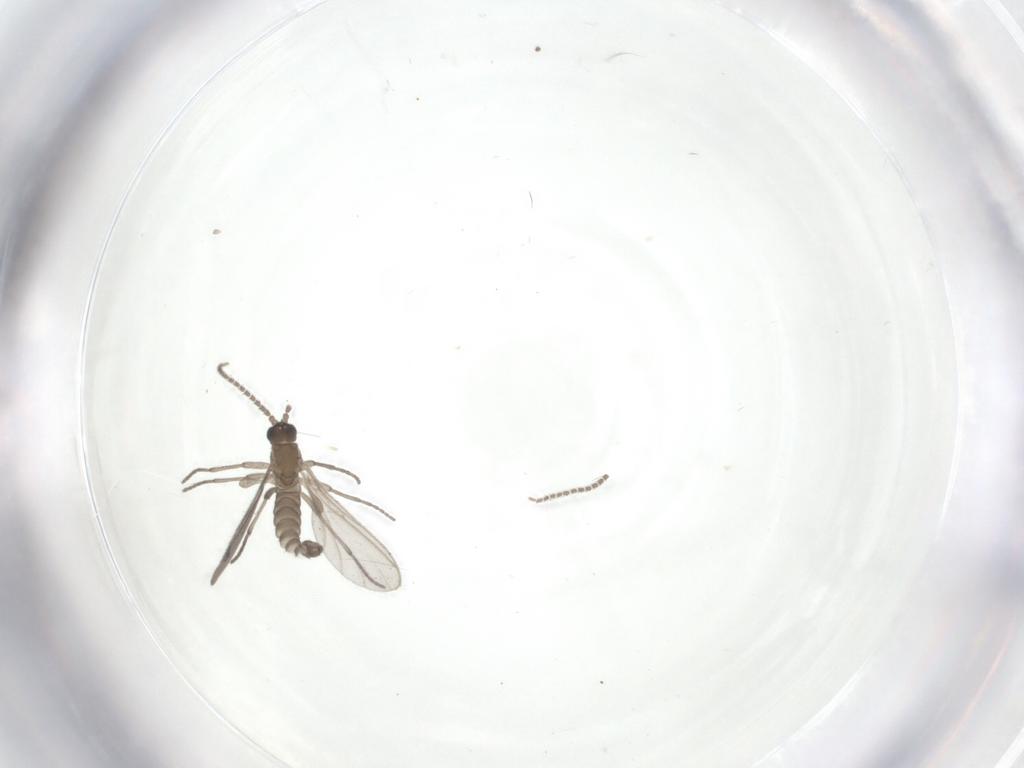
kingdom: Animalia
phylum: Arthropoda
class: Insecta
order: Diptera
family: Sciaridae
